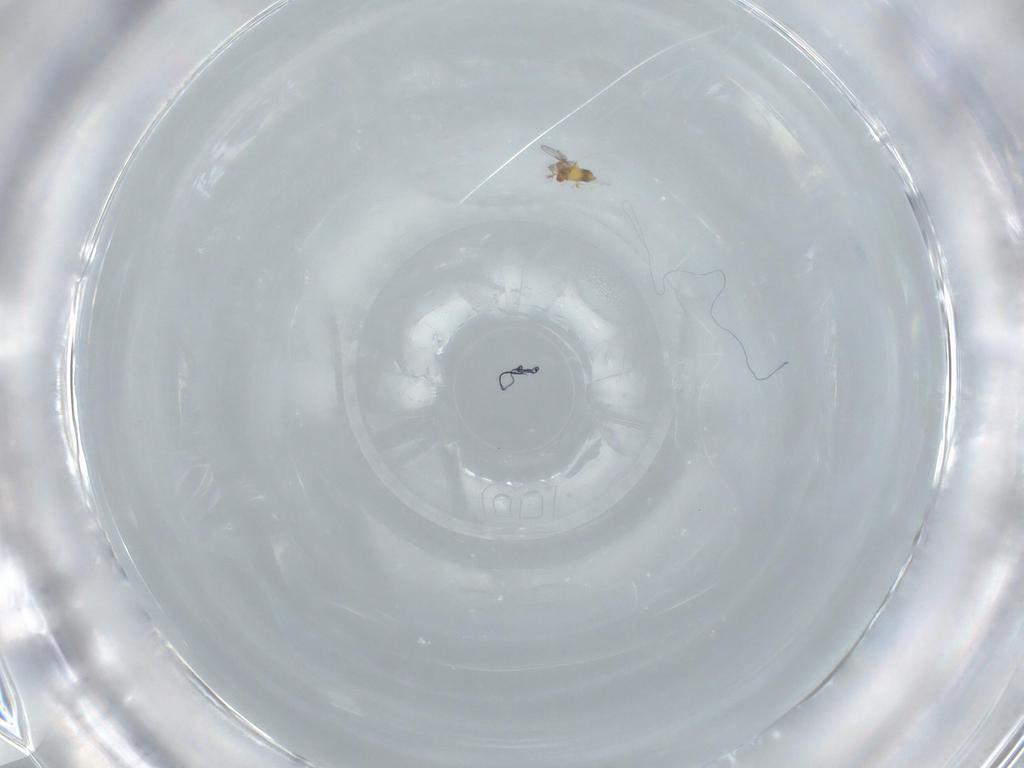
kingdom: Animalia
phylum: Arthropoda
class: Insecta
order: Hymenoptera
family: Trichogrammatidae
